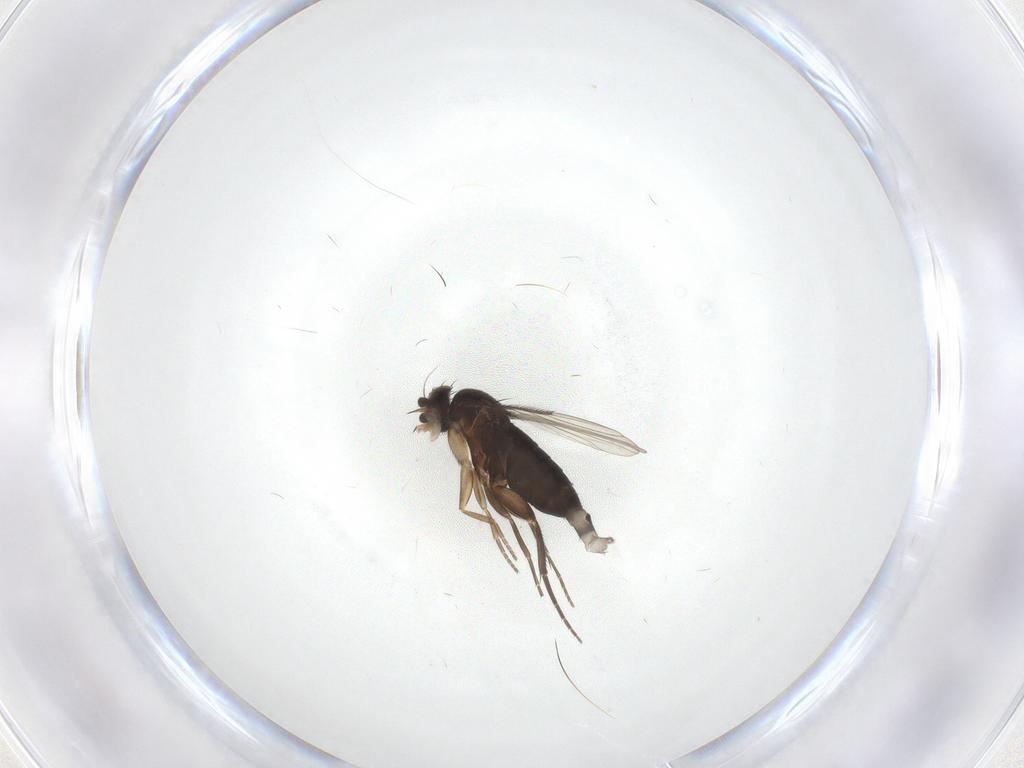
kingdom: Animalia
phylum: Arthropoda
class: Insecta
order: Diptera
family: Phoridae
